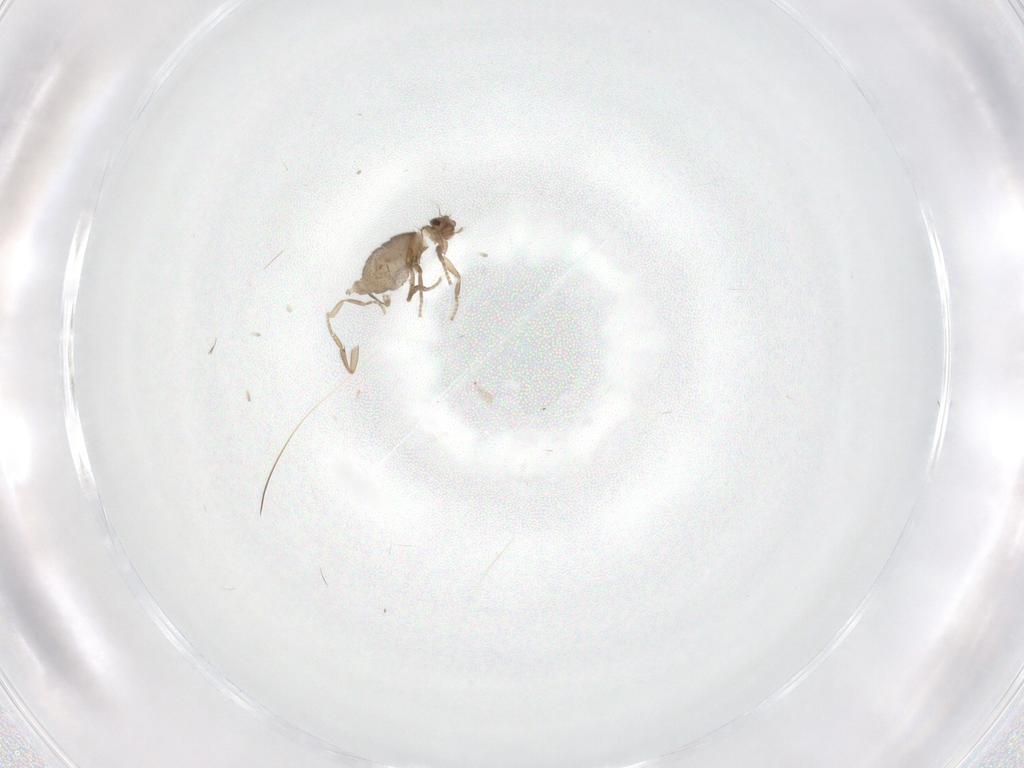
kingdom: Animalia
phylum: Arthropoda
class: Insecta
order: Diptera
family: Phoridae
